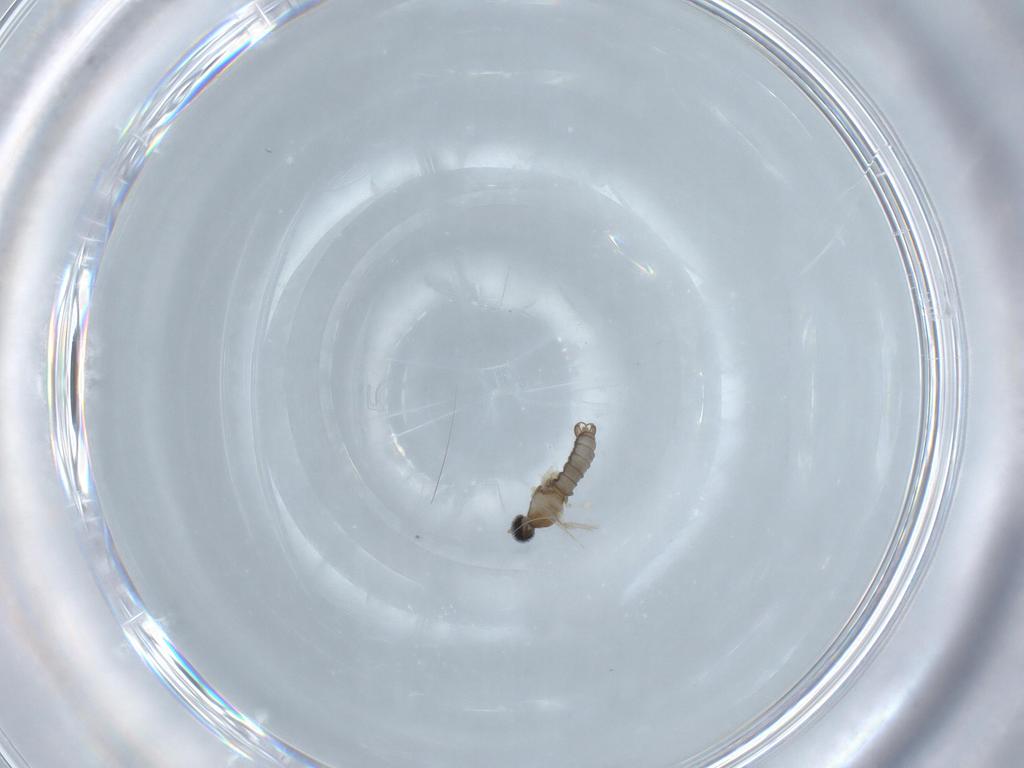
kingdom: Animalia
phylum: Arthropoda
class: Insecta
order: Diptera
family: Cecidomyiidae
